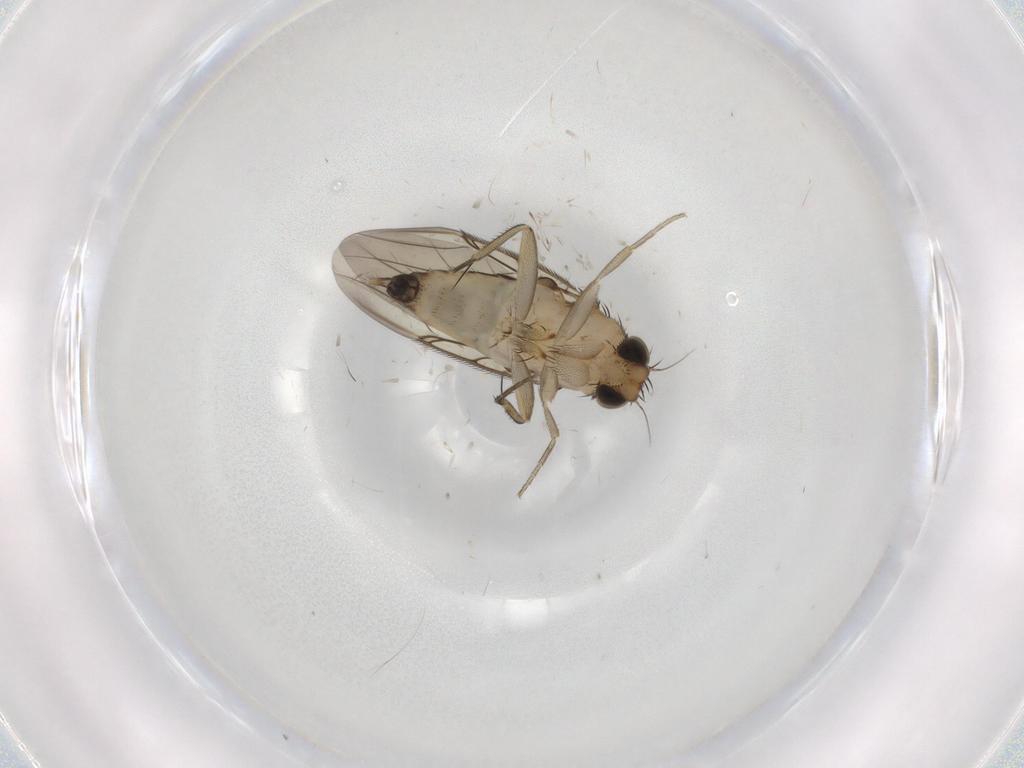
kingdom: Animalia
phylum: Arthropoda
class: Insecta
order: Diptera
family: Phoridae
